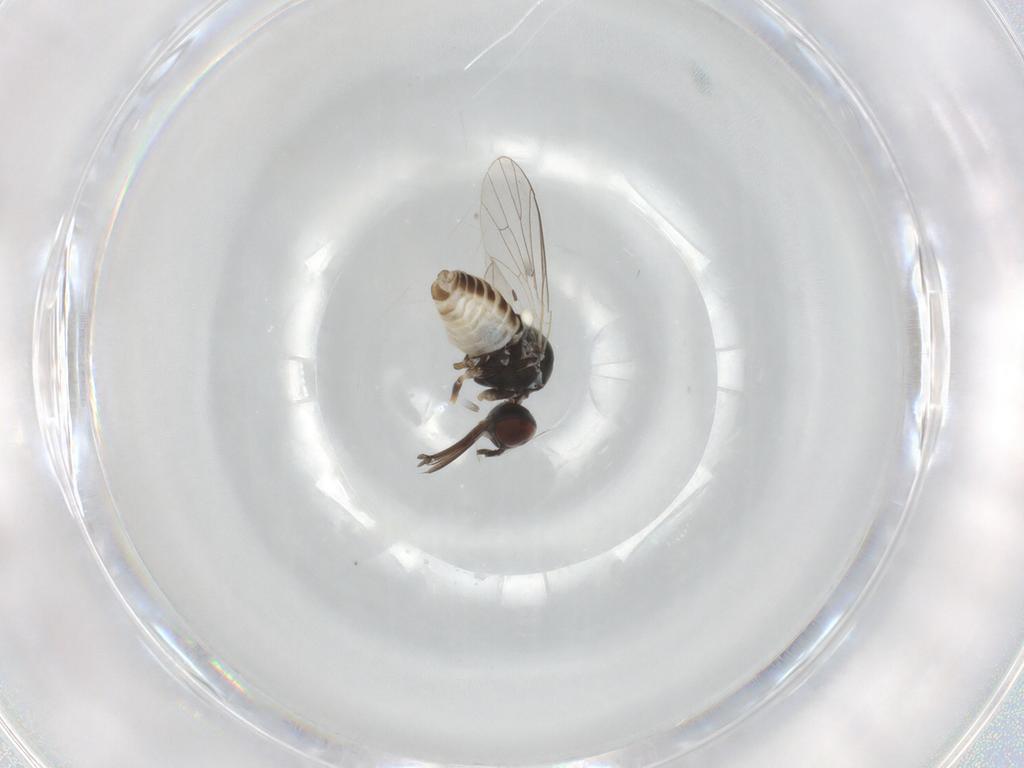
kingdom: Animalia
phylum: Arthropoda
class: Insecta
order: Diptera
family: Bombyliidae
